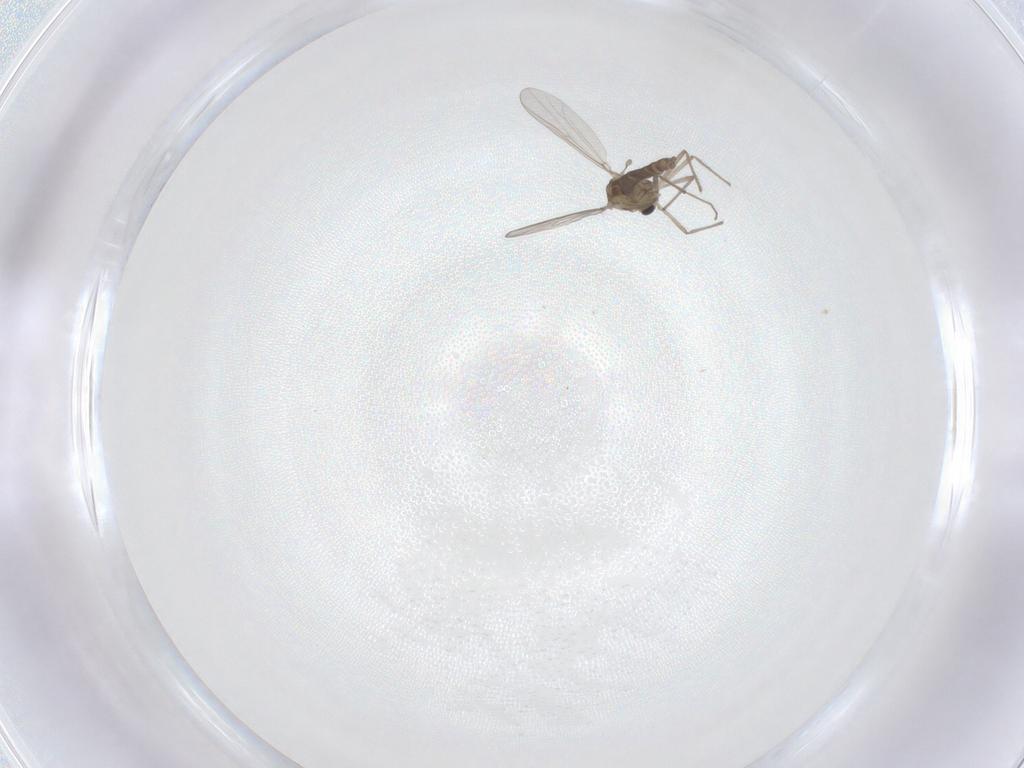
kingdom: Animalia
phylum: Arthropoda
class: Insecta
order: Diptera
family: Chironomidae
